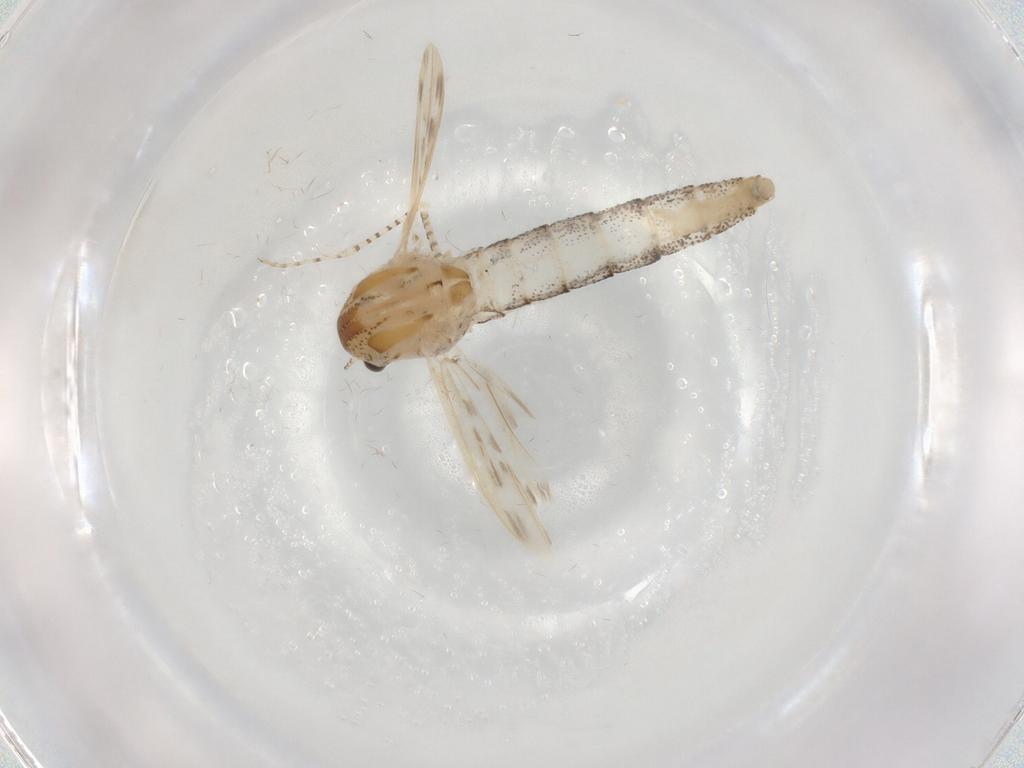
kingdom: Animalia
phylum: Arthropoda
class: Insecta
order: Diptera
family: Chaoboridae
